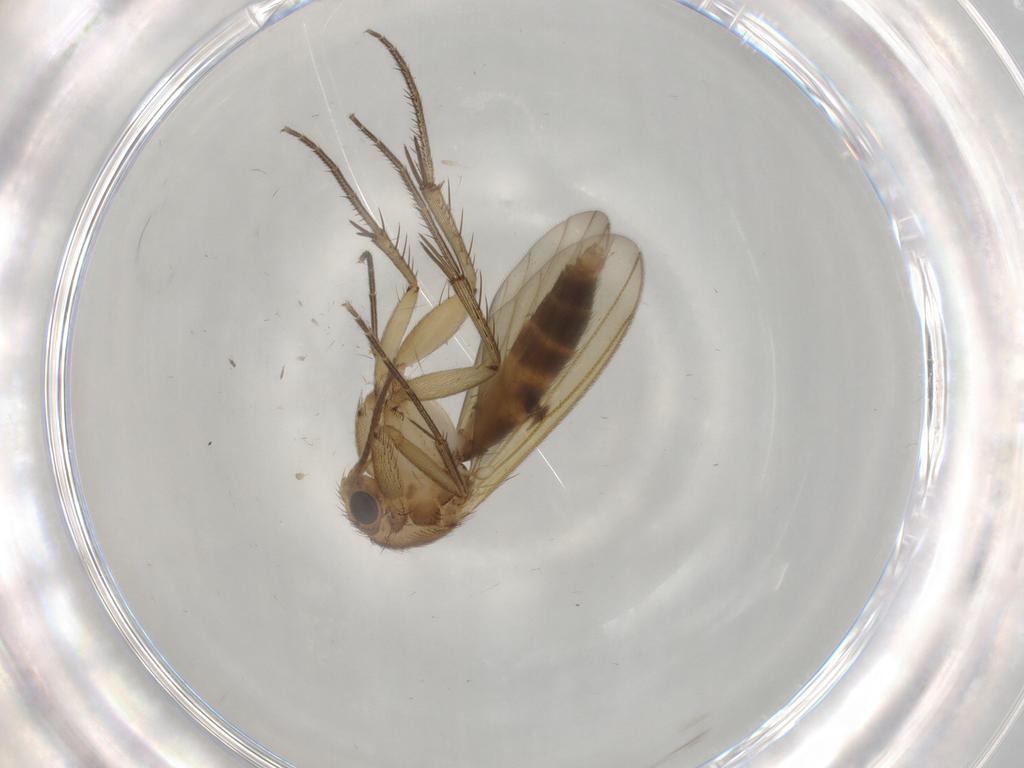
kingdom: Animalia
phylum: Arthropoda
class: Insecta
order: Diptera
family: Mycetophilidae
